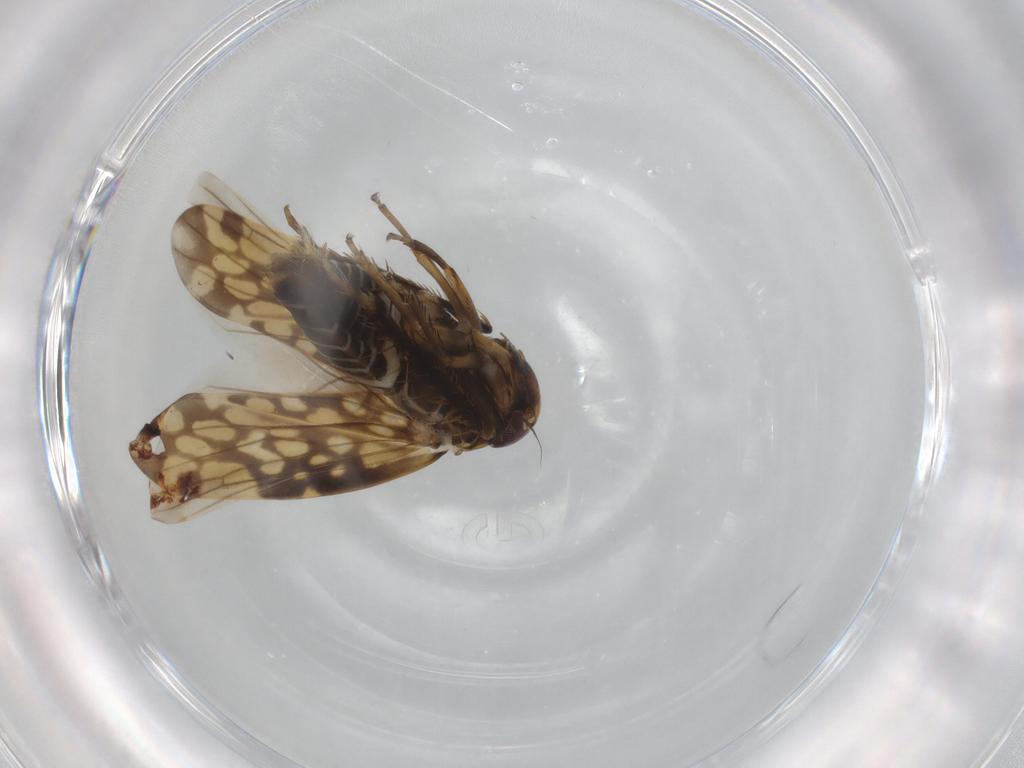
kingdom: Animalia
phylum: Arthropoda
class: Insecta
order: Hemiptera
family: Cicadellidae
